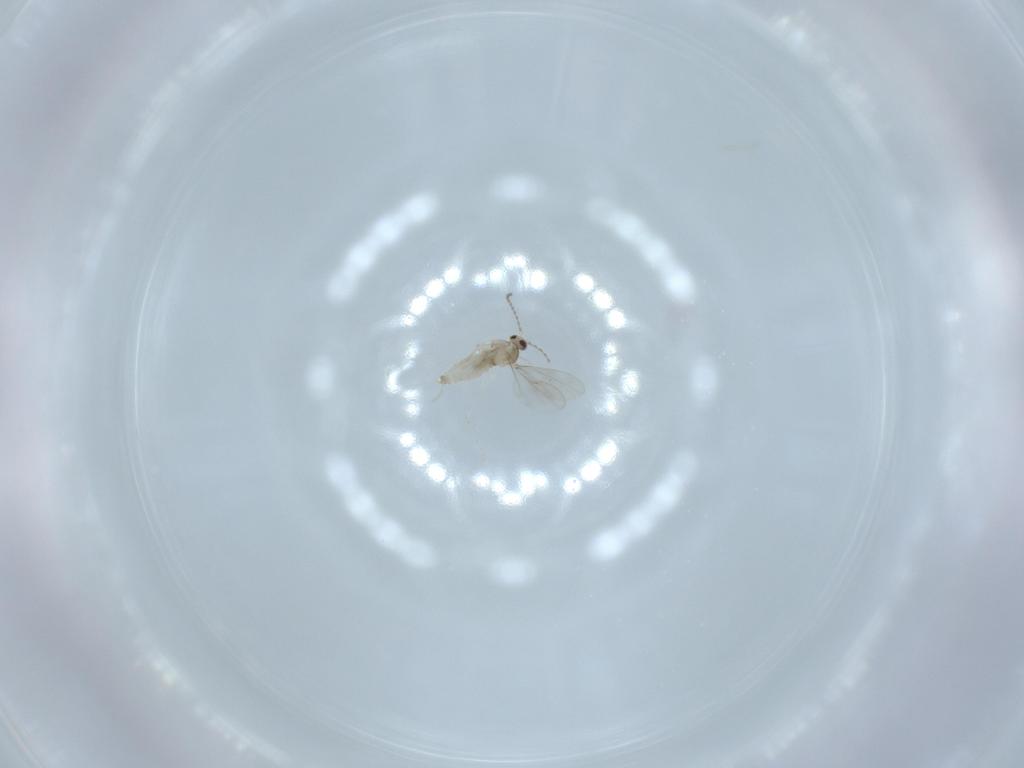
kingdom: Animalia
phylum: Arthropoda
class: Insecta
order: Diptera
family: Cecidomyiidae
